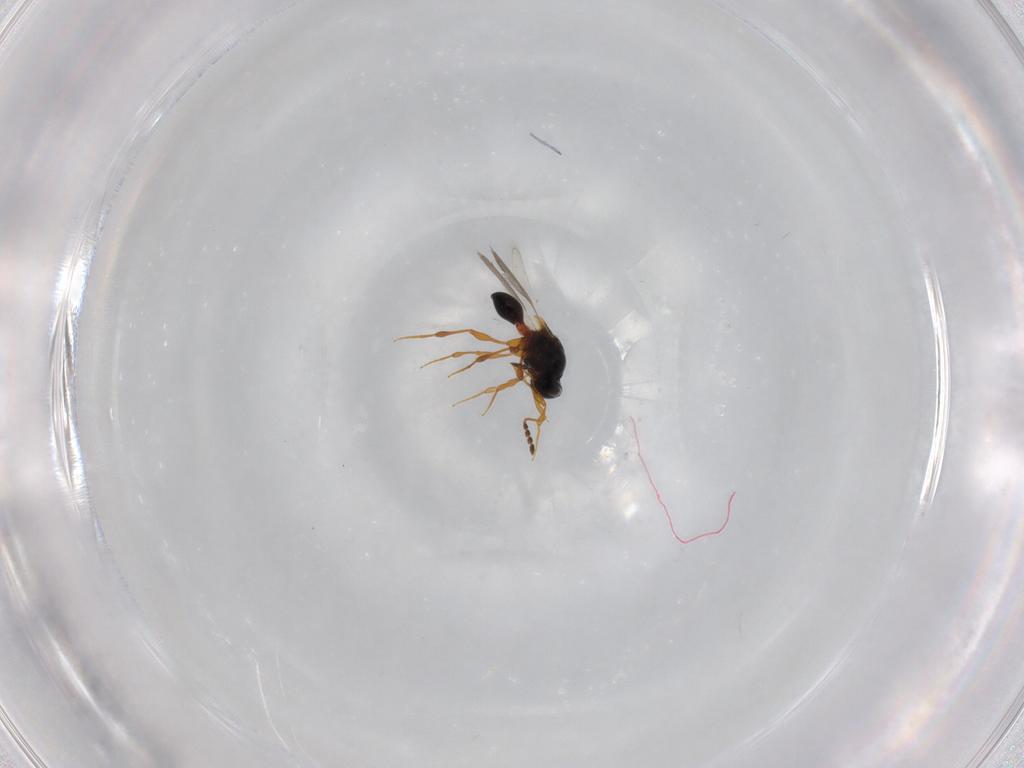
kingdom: Animalia
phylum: Arthropoda
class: Insecta
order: Hymenoptera
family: Platygastridae
